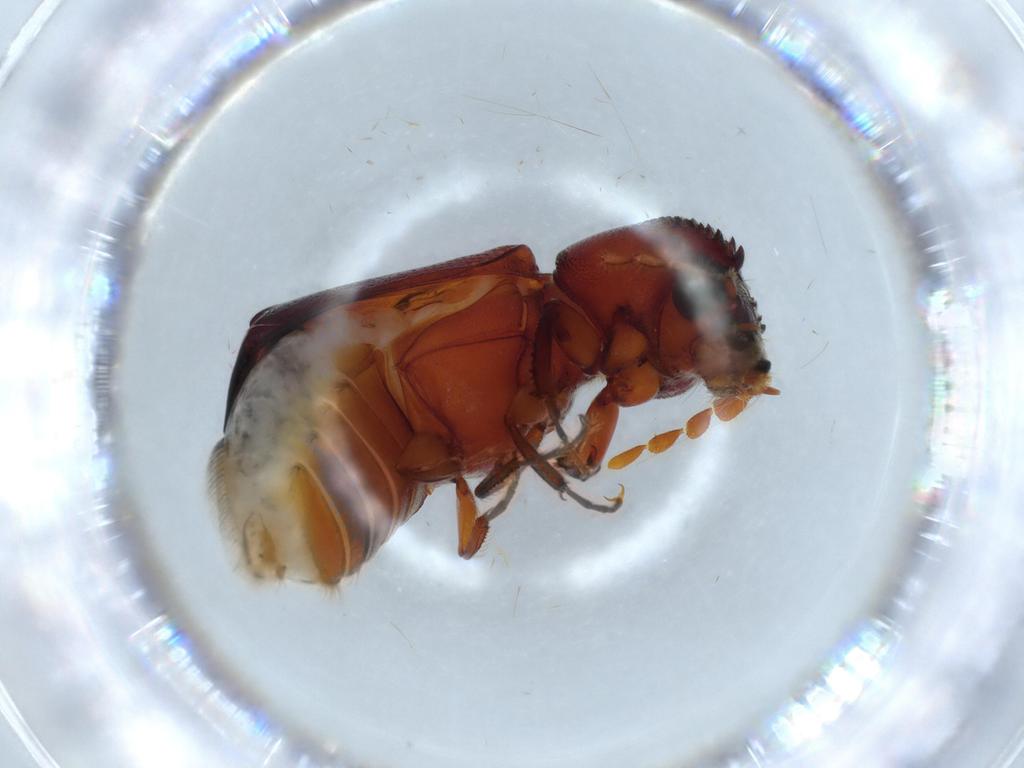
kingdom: Animalia
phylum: Arthropoda
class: Insecta
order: Coleoptera
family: Bostrichidae
